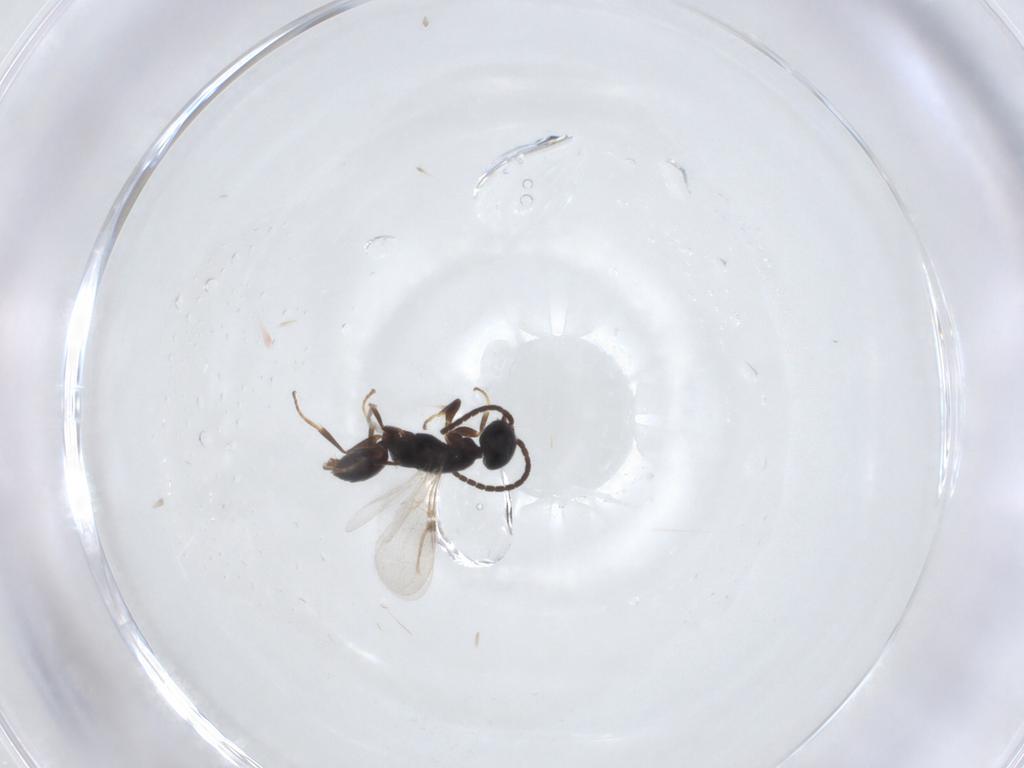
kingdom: Animalia
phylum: Arthropoda
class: Insecta
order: Hymenoptera
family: Bethylidae
